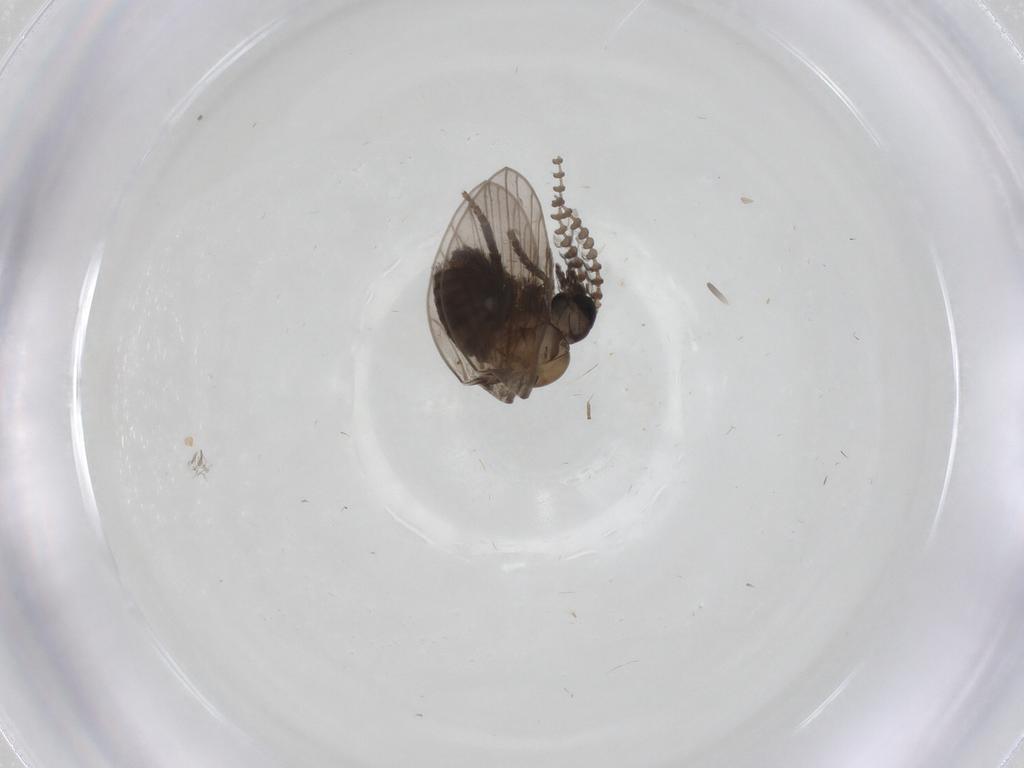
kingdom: Animalia
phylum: Arthropoda
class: Insecta
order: Diptera
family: Psychodidae
